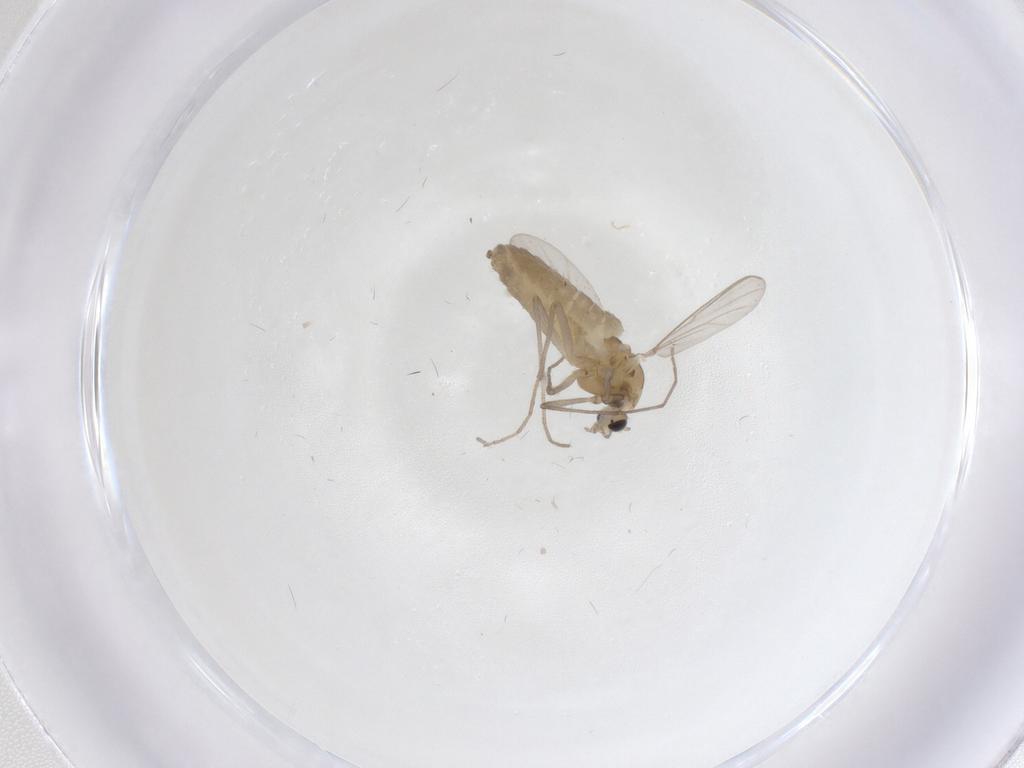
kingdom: Animalia
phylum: Arthropoda
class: Insecta
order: Diptera
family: Chironomidae
